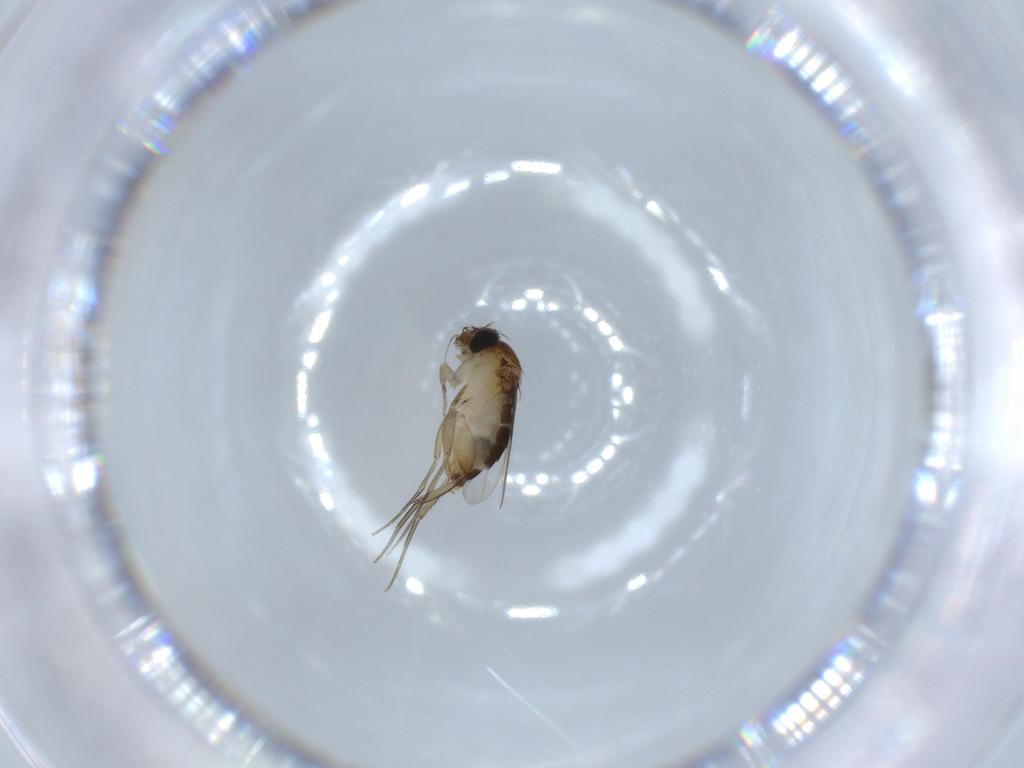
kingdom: Animalia
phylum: Arthropoda
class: Insecta
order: Diptera
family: Phoridae
